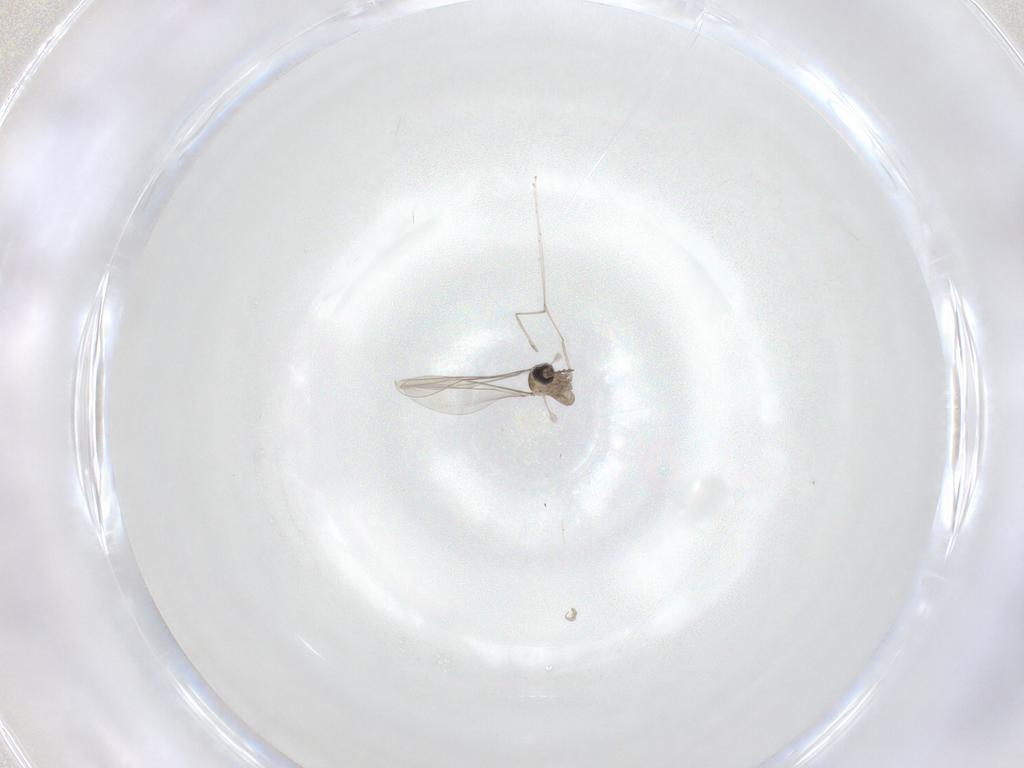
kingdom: Animalia
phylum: Arthropoda
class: Insecta
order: Diptera
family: Cecidomyiidae
